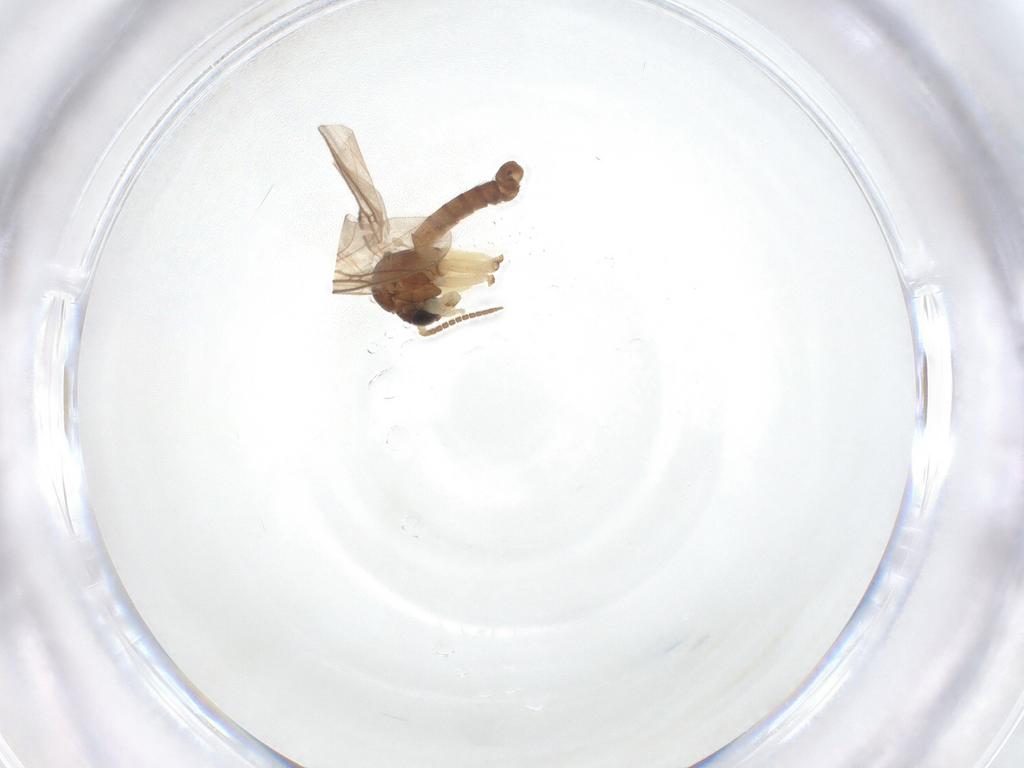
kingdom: Animalia
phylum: Arthropoda
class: Insecta
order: Diptera
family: Mycetophilidae
